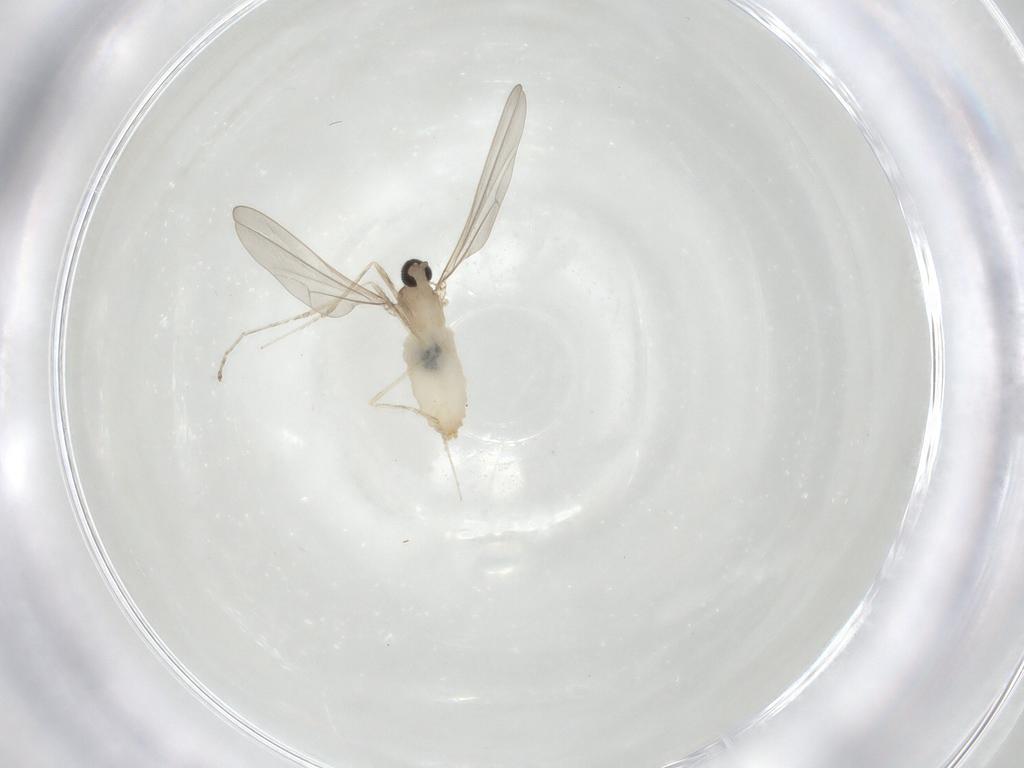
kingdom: Animalia
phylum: Arthropoda
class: Insecta
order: Diptera
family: Cecidomyiidae
